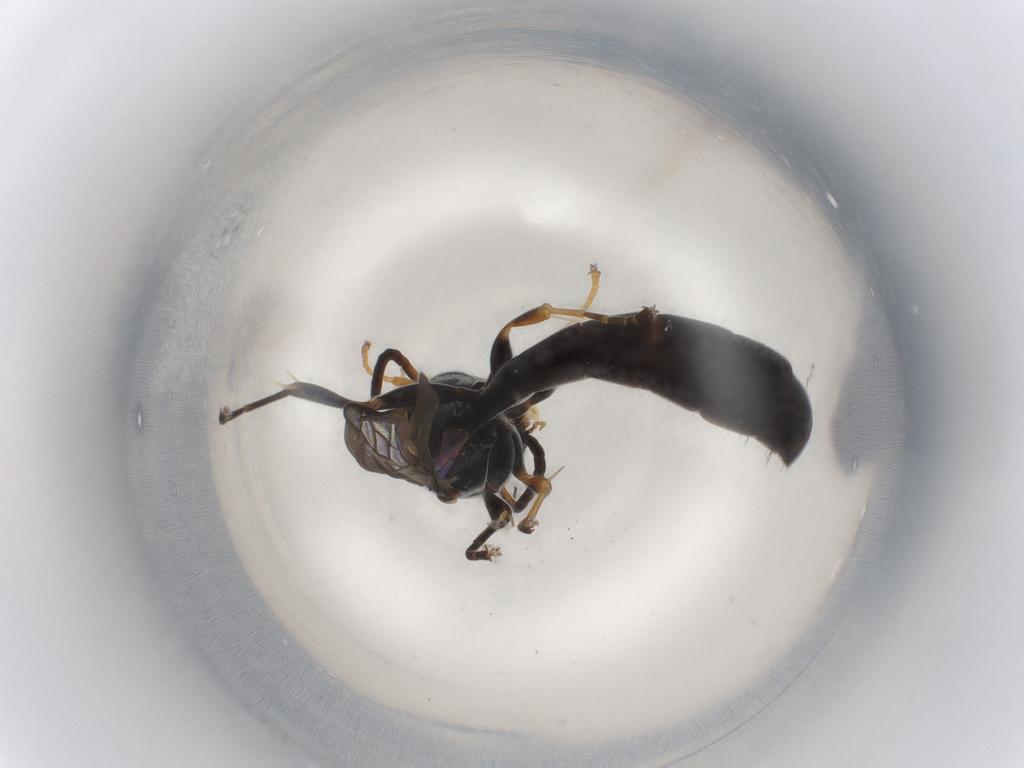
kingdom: Animalia
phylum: Arthropoda
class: Insecta
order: Hymenoptera
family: Crabronidae
